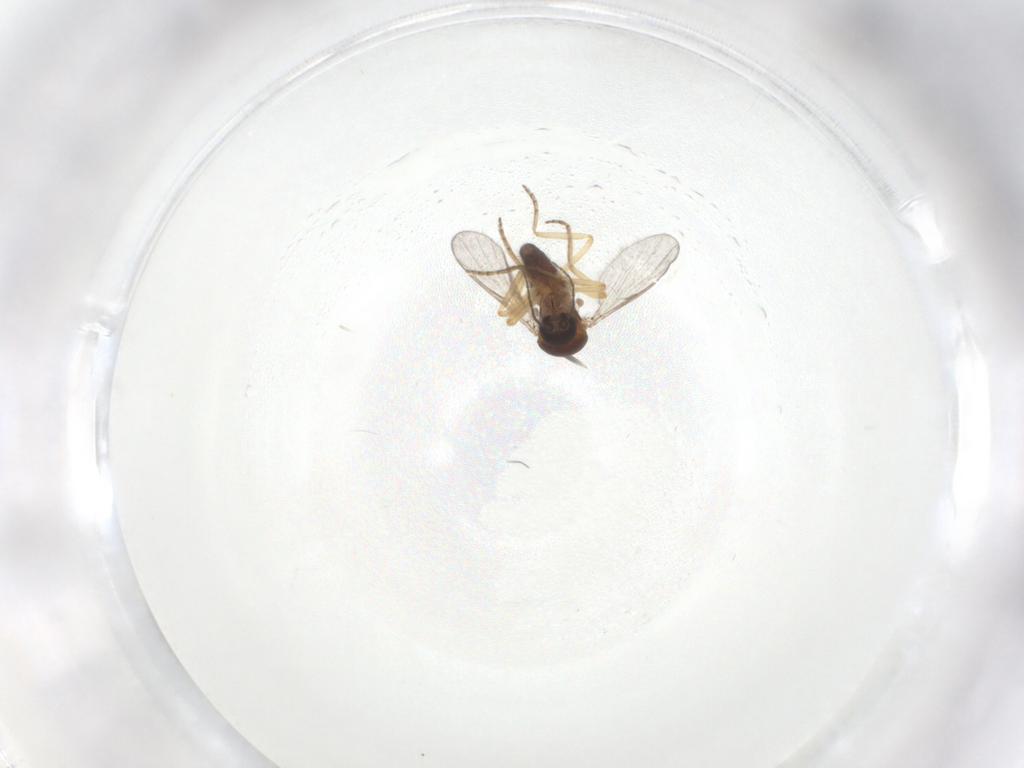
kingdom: Animalia
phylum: Arthropoda
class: Insecta
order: Diptera
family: Ceratopogonidae
